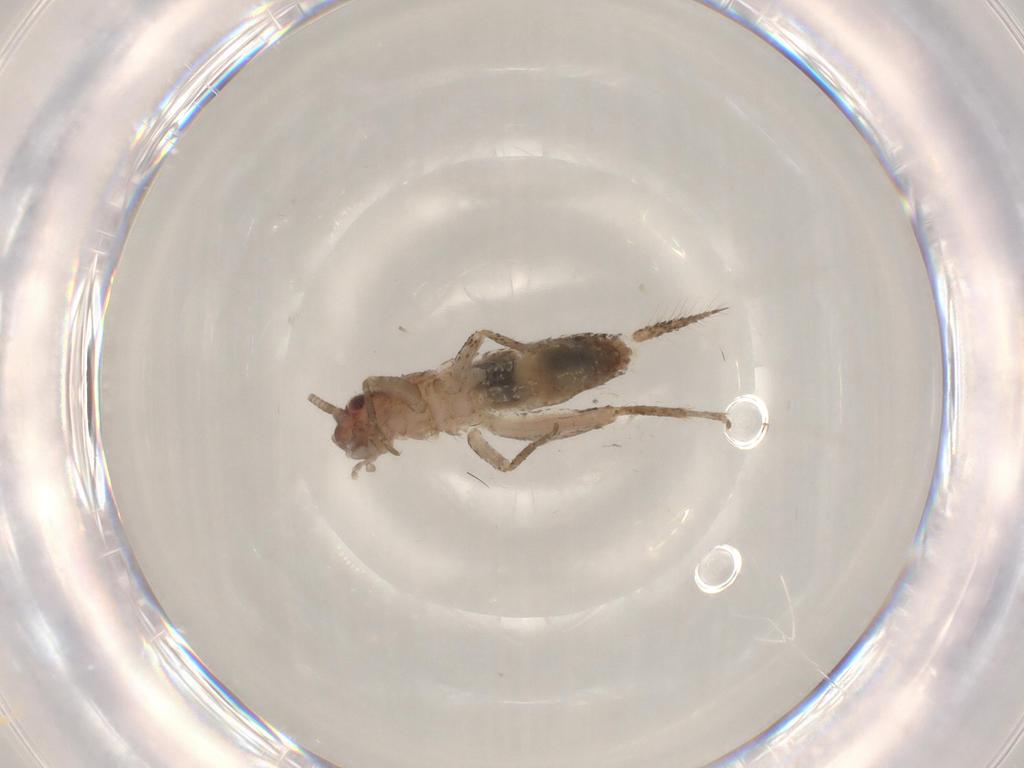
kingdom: Animalia
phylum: Arthropoda
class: Insecta
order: Orthoptera
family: Mogoplistidae
